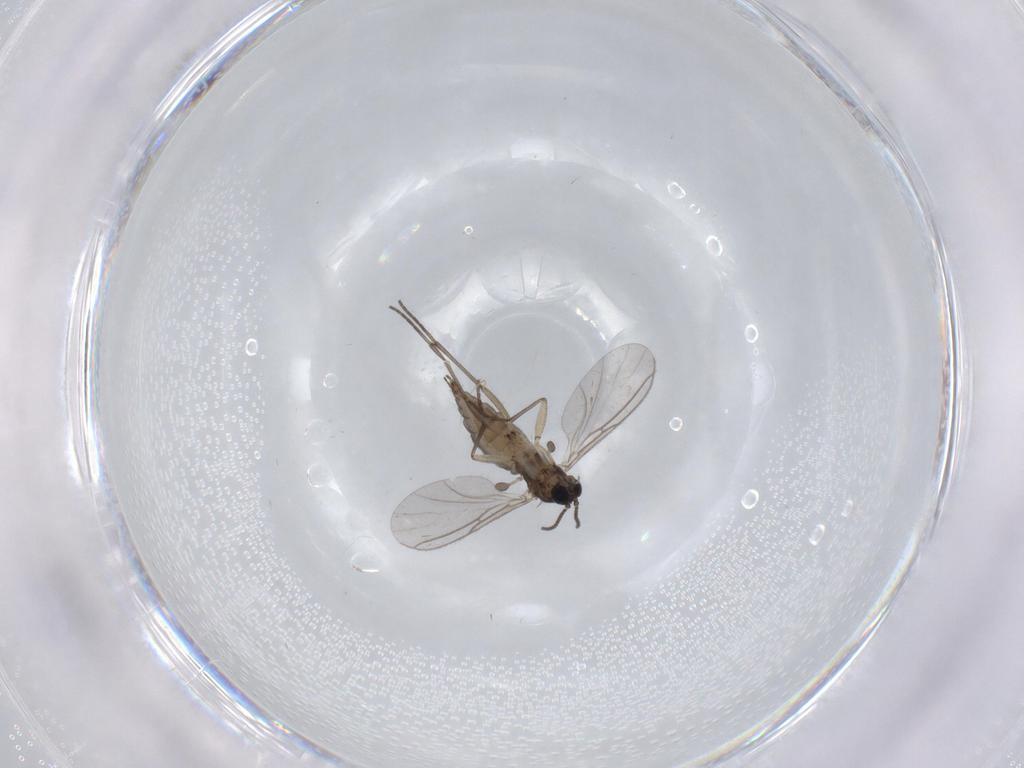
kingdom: Animalia
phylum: Arthropoda
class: Insecta
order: Diptera
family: Sciaridae
